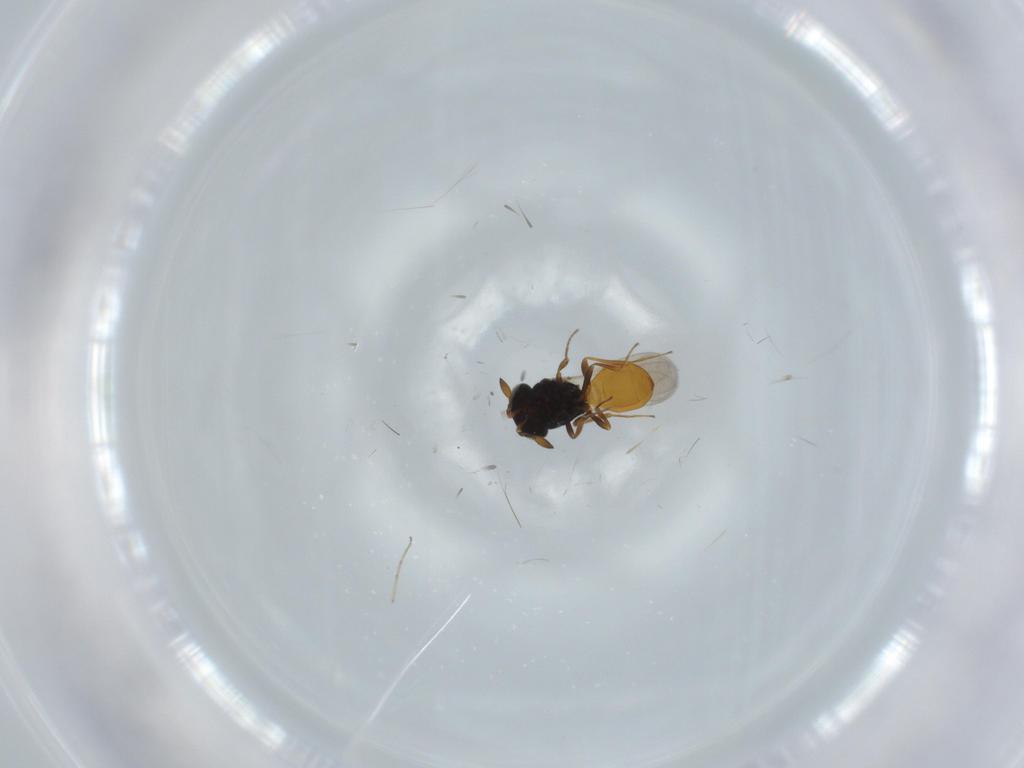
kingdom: Animalia
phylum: Arthropoda
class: Insecta
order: Hymenoptera
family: Scelionidae
